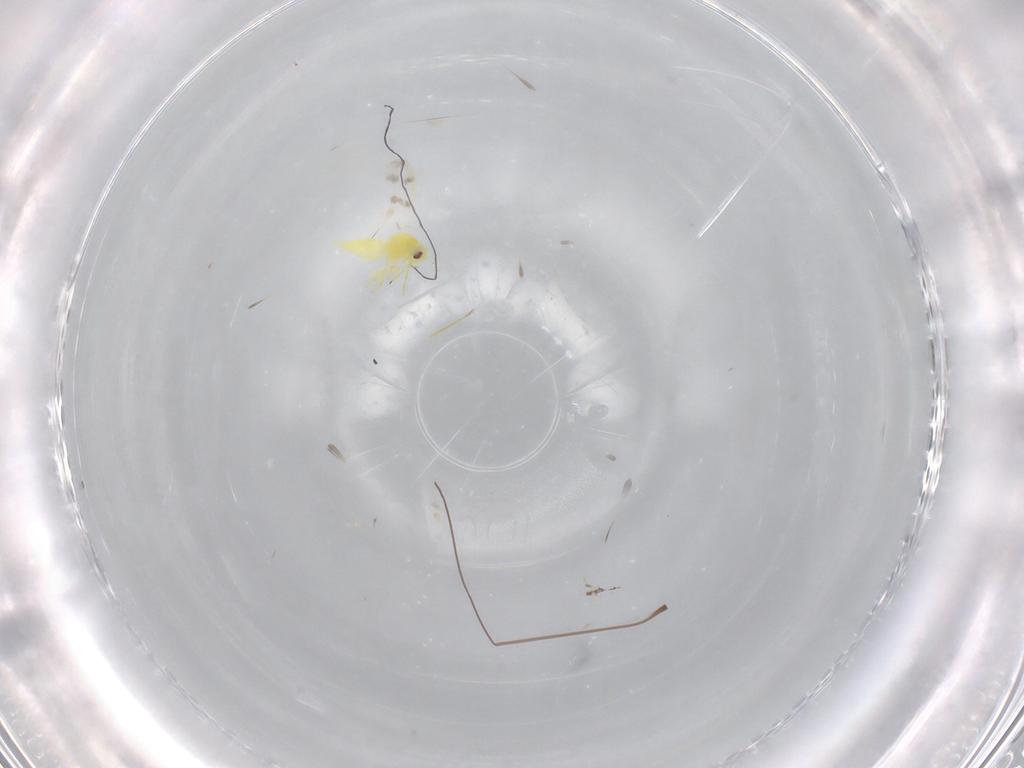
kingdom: Animalia
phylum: Arthropoda
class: Insecta
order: Hemiptera
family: Aleyrodidae
